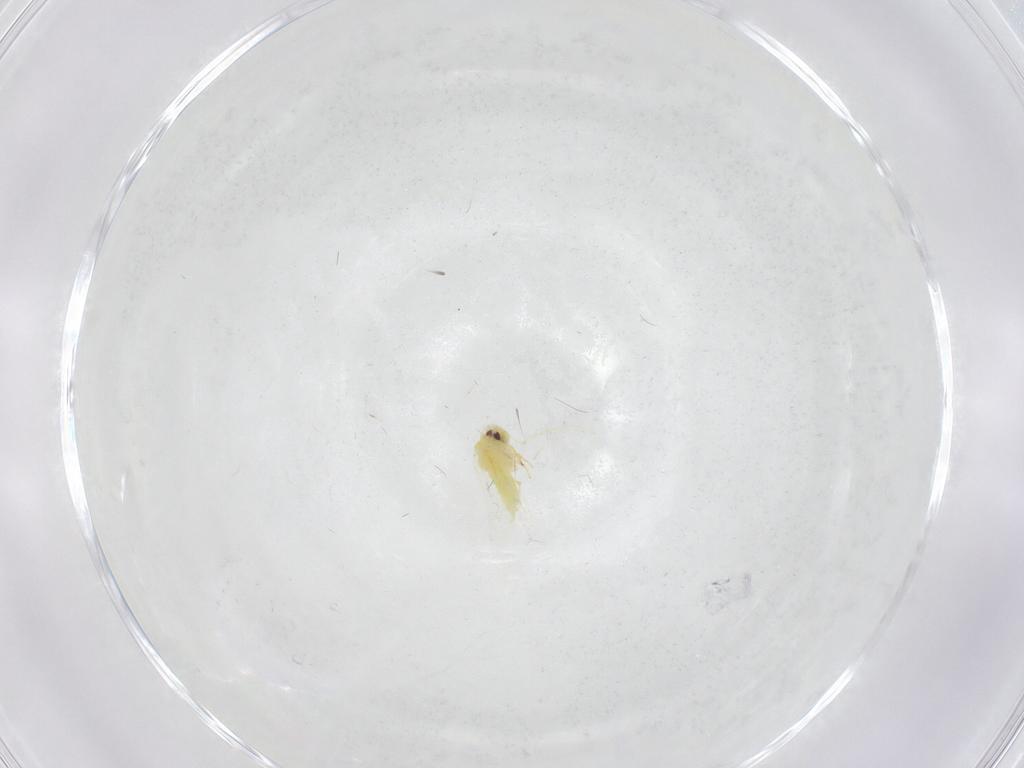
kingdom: Animalia
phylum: Arthropoda
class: Insecta
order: Hemiptera
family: Aleyrodidae
